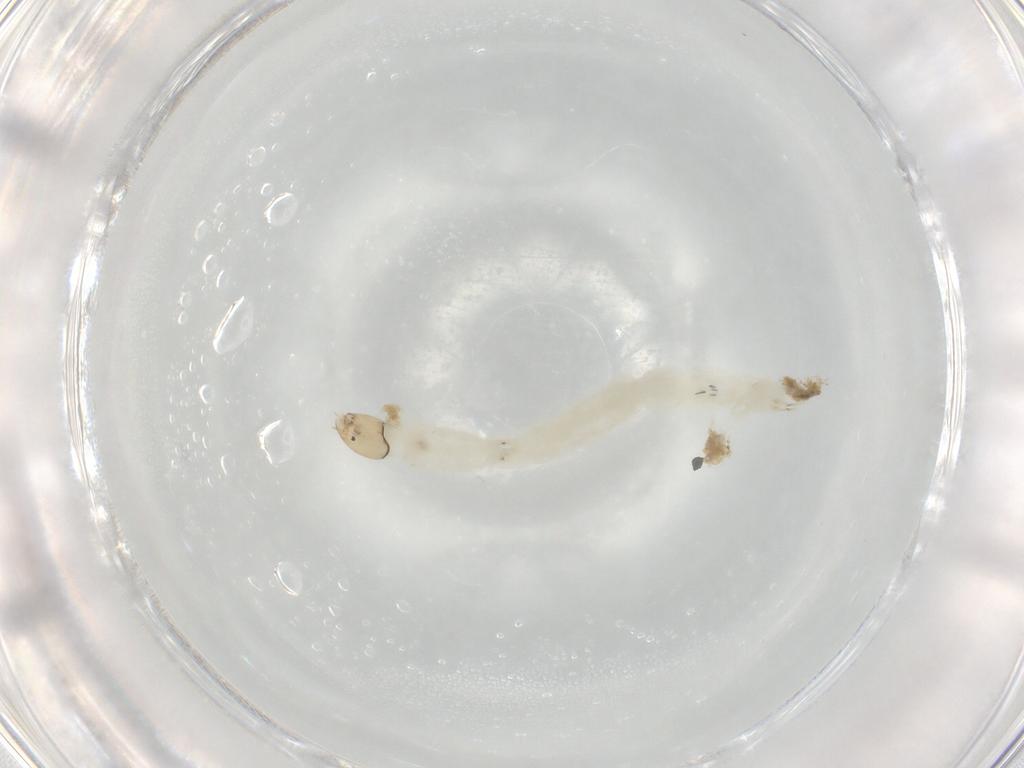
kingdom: Animalia
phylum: Arthropoda
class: Insecta
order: Diptera
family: Chironomidae
